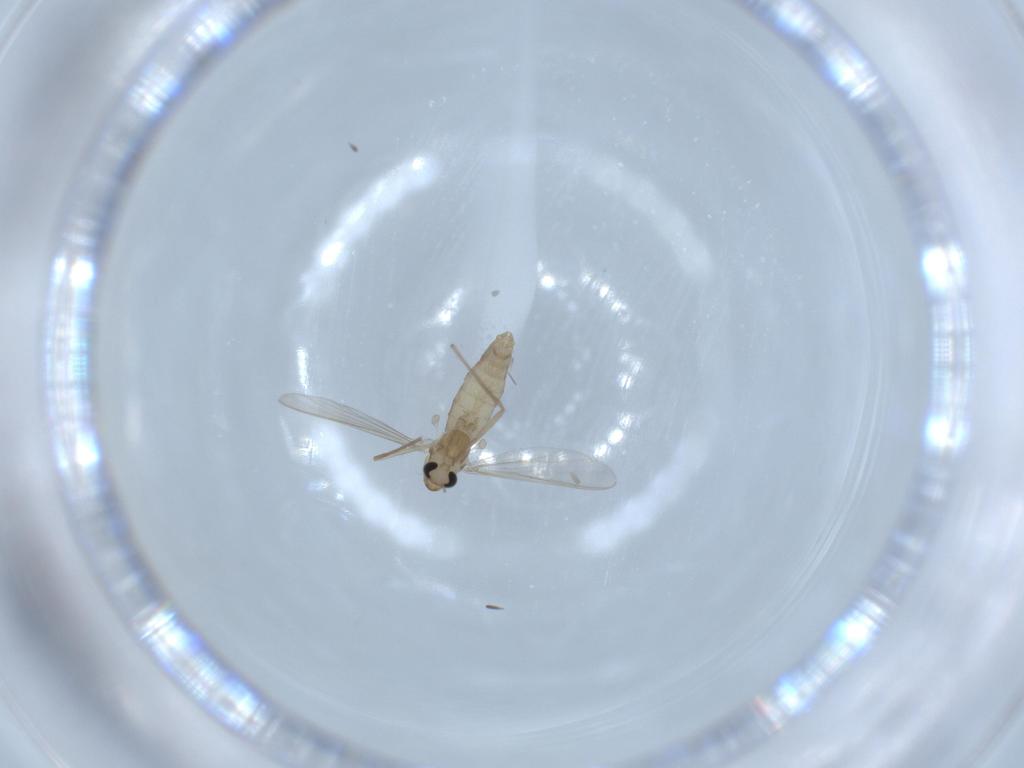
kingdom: Animalia
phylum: Arthropoda
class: Insecta
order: Diptera
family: Chironomidae
